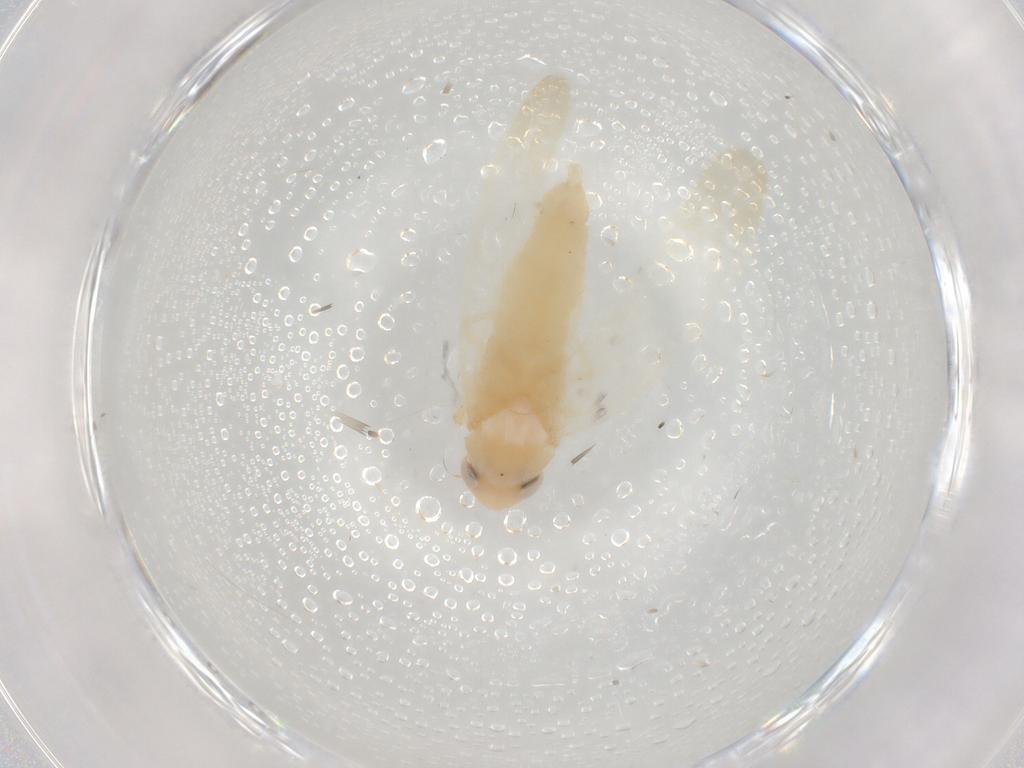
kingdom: Animalia
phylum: Arthropoda
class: Insecta
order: Hemiptera
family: Cicadellidae
